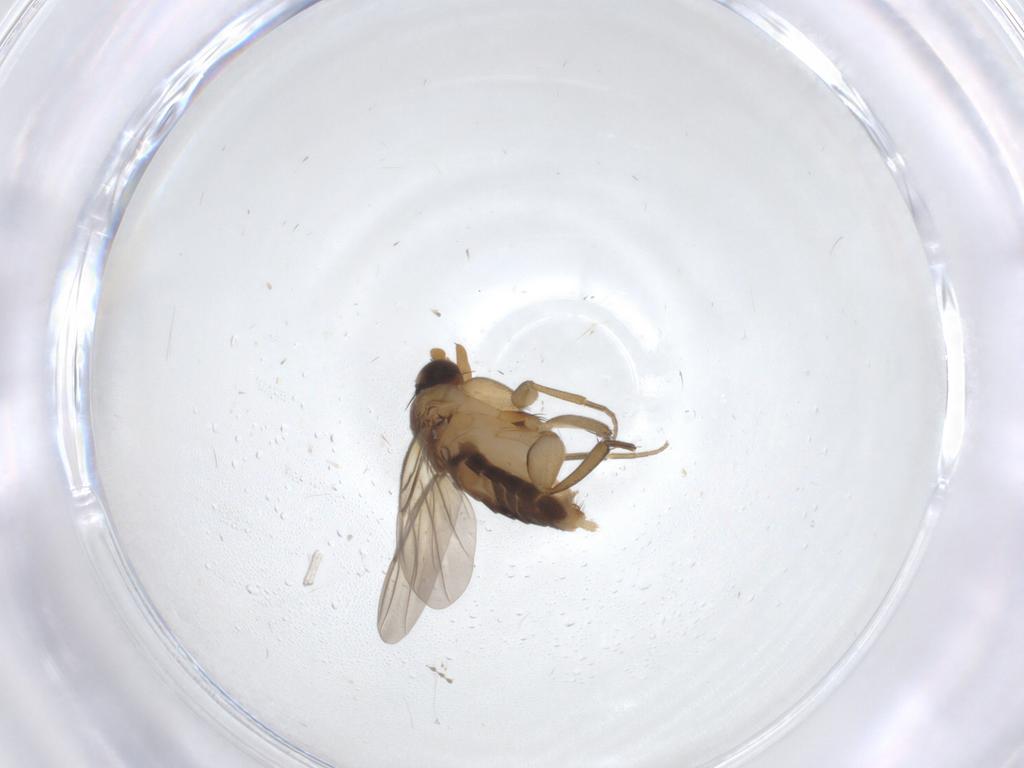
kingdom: Animalia
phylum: Arthropoda
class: Insecta
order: Diptera
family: Phoridae
